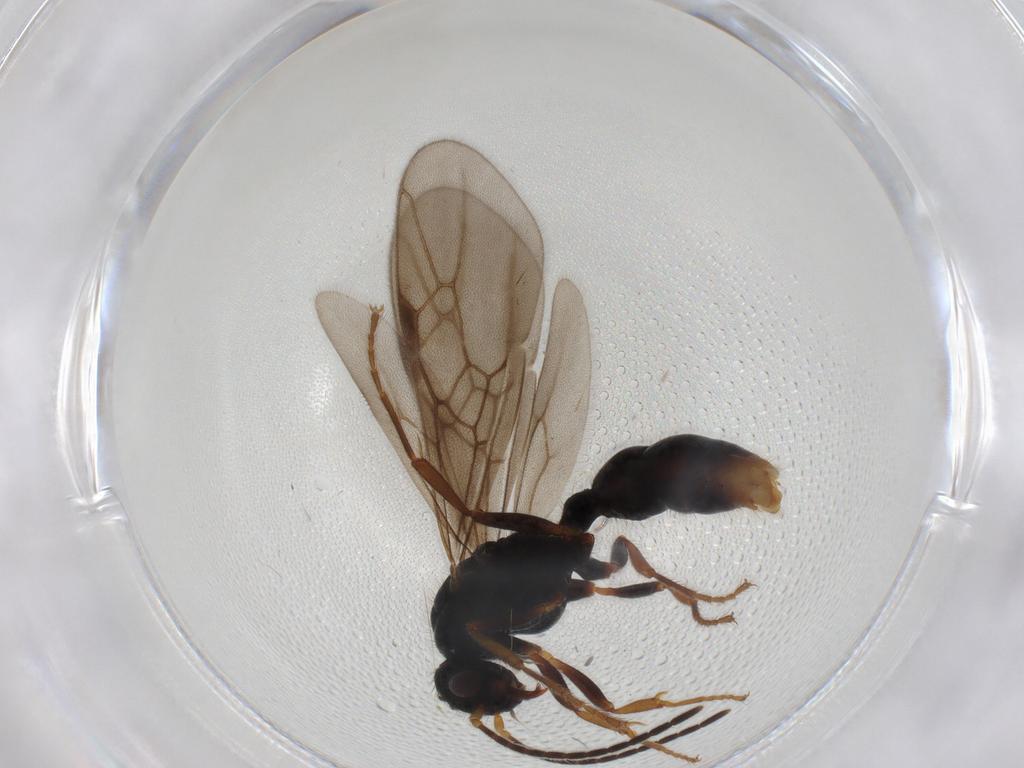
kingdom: Animalia
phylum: Arthropoda
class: Insecta
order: Hymenoptera
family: Formicidae
